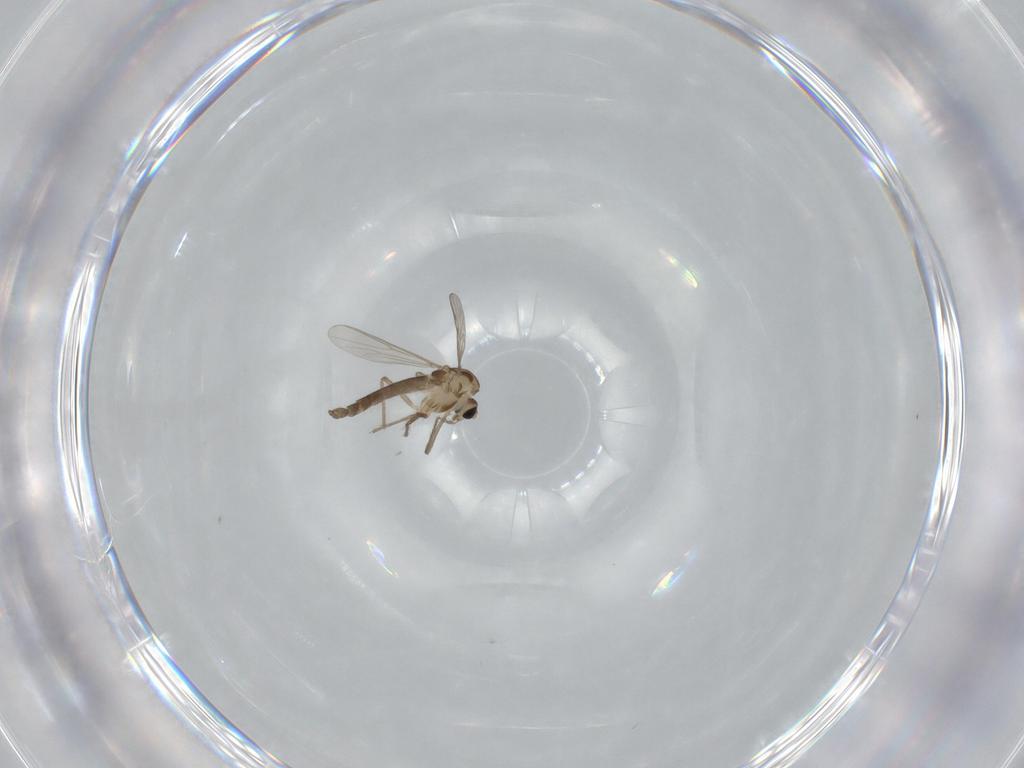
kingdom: Animalia
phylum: Arthropoda
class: Insecta
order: Diptera
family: Chironomidae
